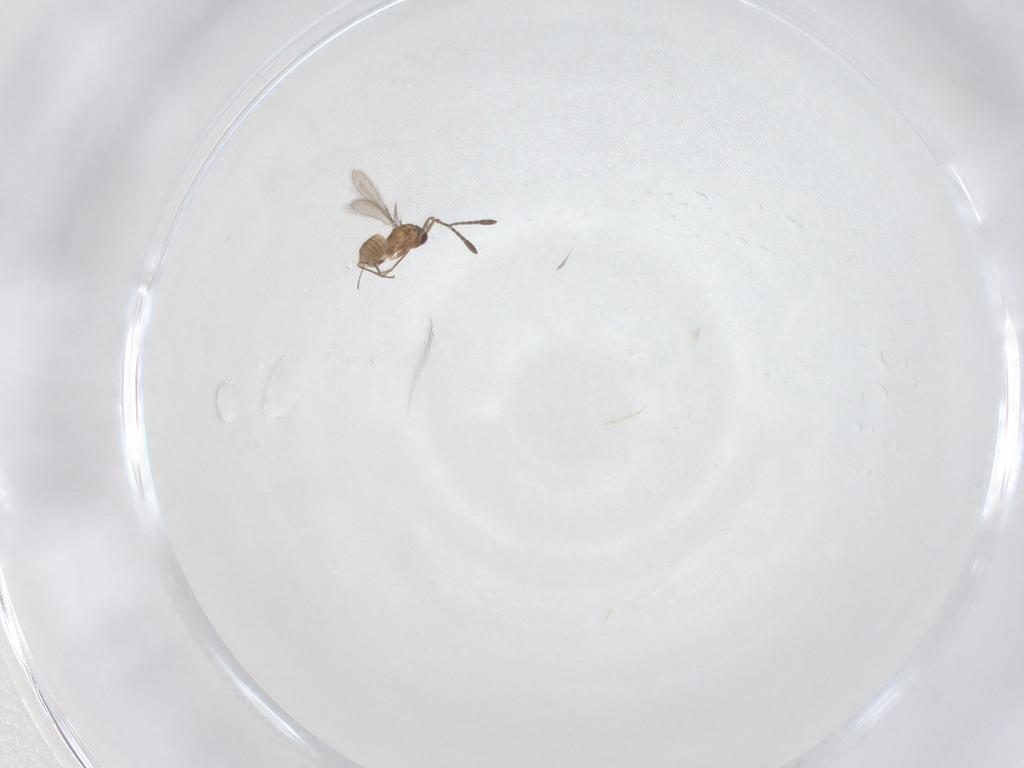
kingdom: Animalia
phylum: Arthropoda
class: Insecta
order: Hymenoptera
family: Mymaridae
